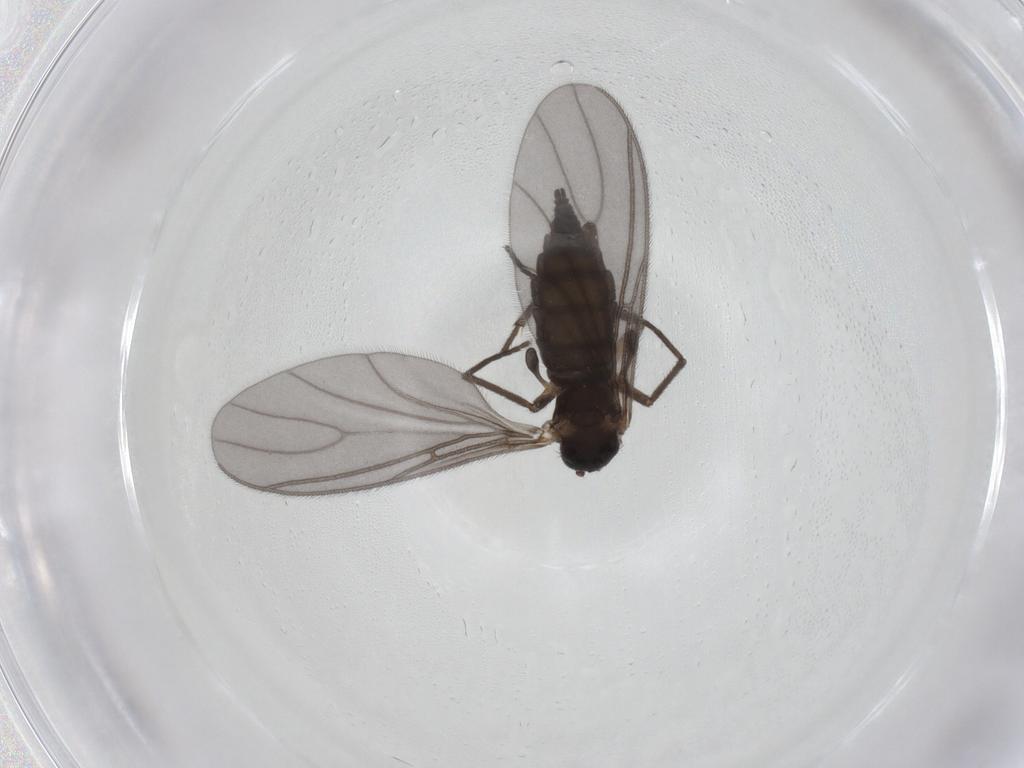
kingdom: Animalia
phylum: Arthropoda
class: Insecta
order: Diptera
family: Sciaridae
